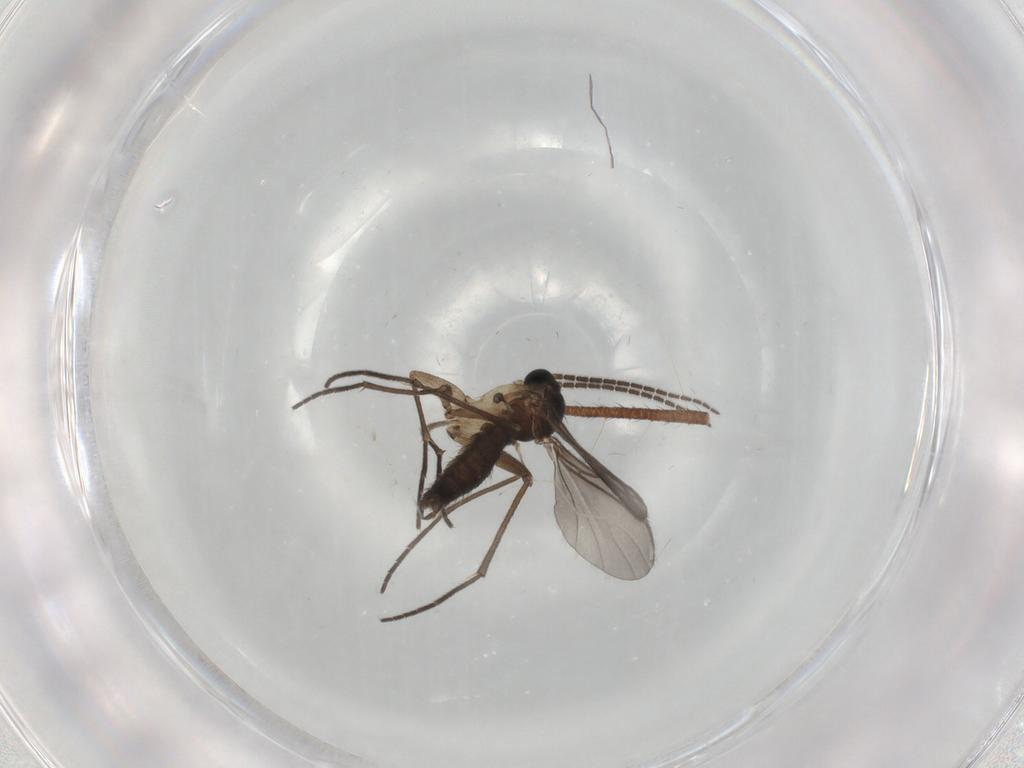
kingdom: Animalia
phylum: Arthropoda
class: Insecta
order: Diptera
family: Sciaridae
